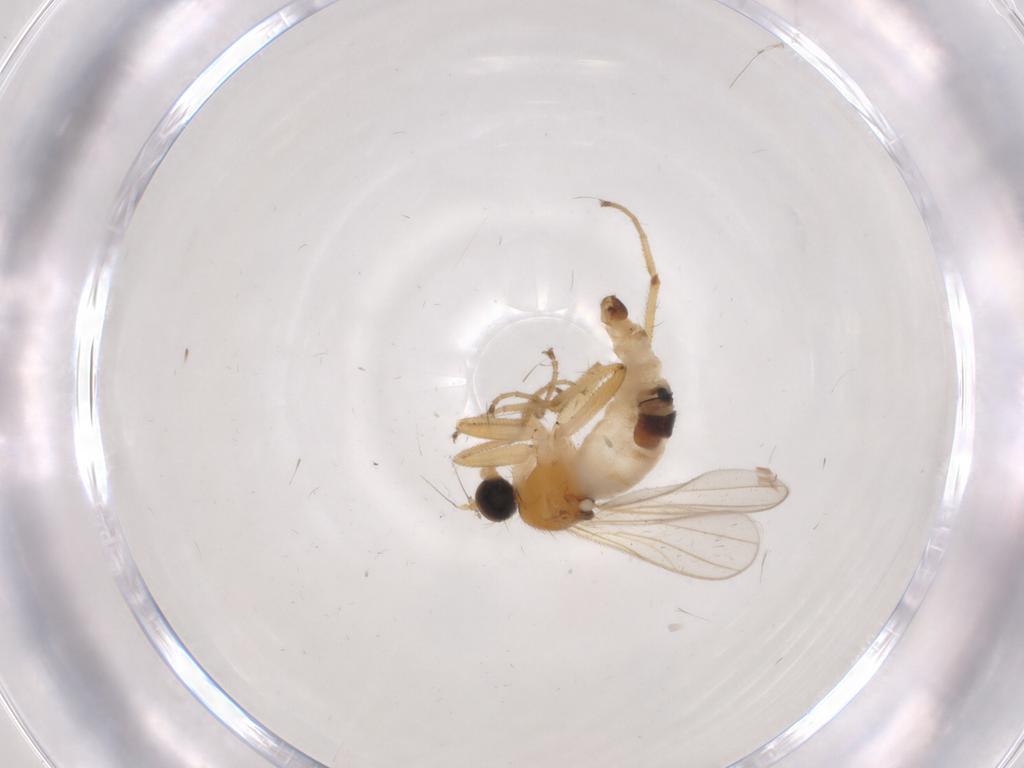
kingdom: Animalia
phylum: Arthropoda
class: Insecta
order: Diptera
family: Hybotidae
